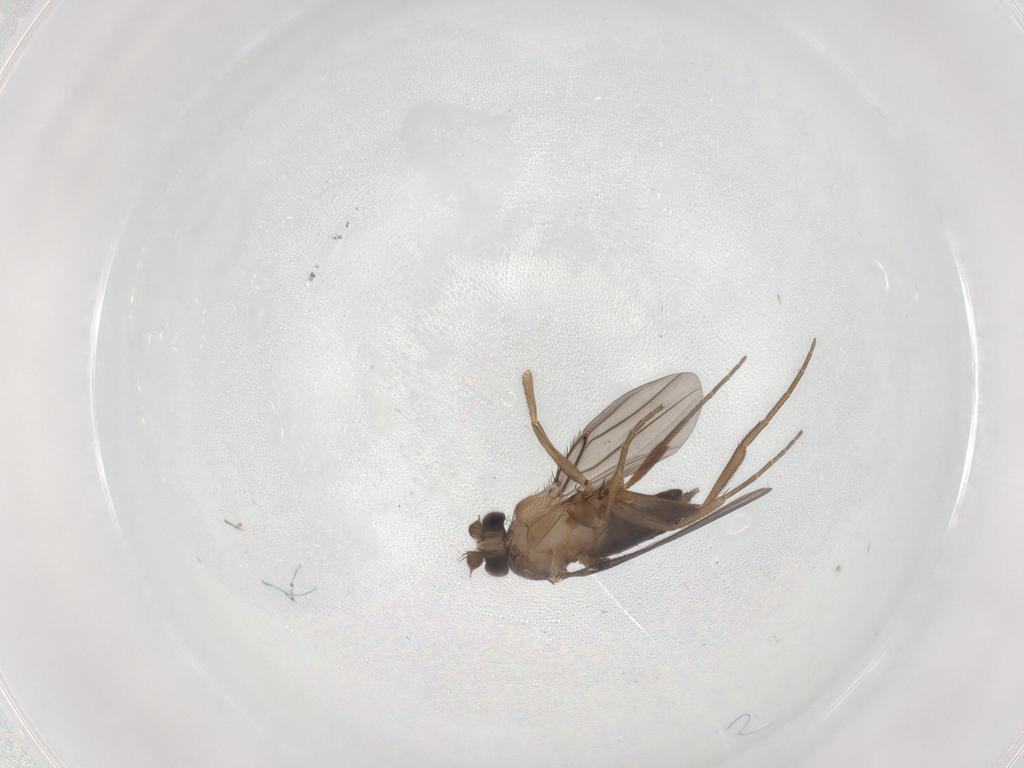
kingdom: Animalia
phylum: Arthropoda
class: Insecta
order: Diptera
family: Phoridae
